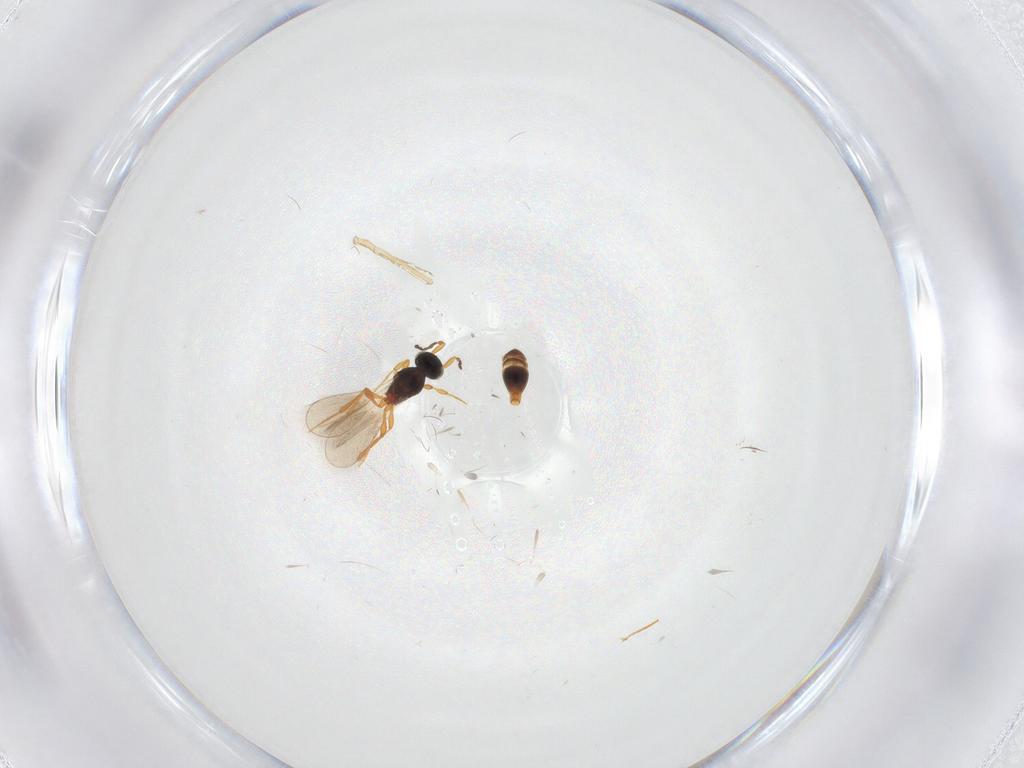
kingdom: Animalia
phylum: Arthropoda
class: Insecta
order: Hymenoptera
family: Platygastridae
